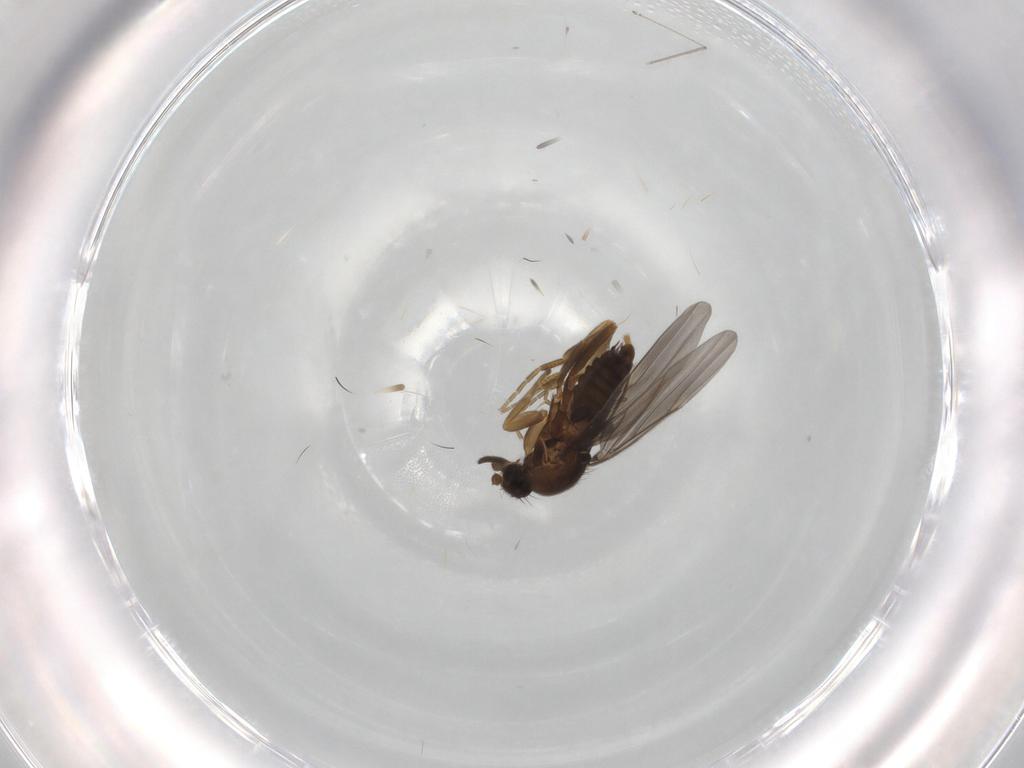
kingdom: Animalia
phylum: Arthropoda
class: Insecta
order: Diptera
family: Phoridae
